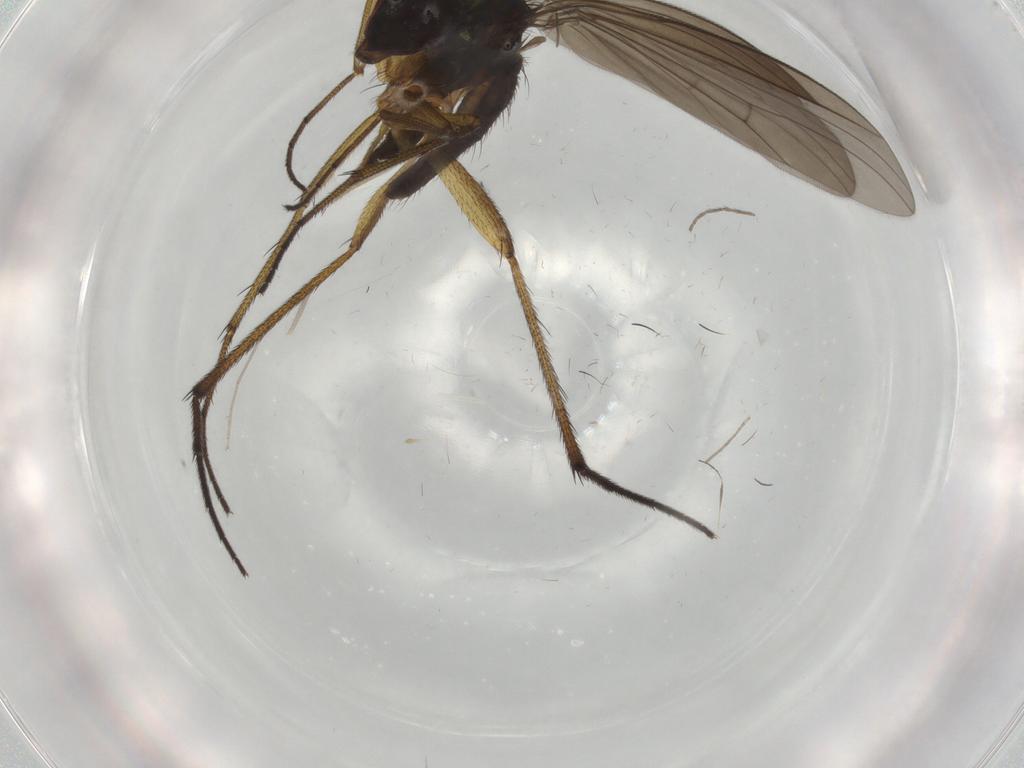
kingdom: Animalia
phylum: Arthropoda
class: Insecta
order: Diptera
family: Dolichopodidae
